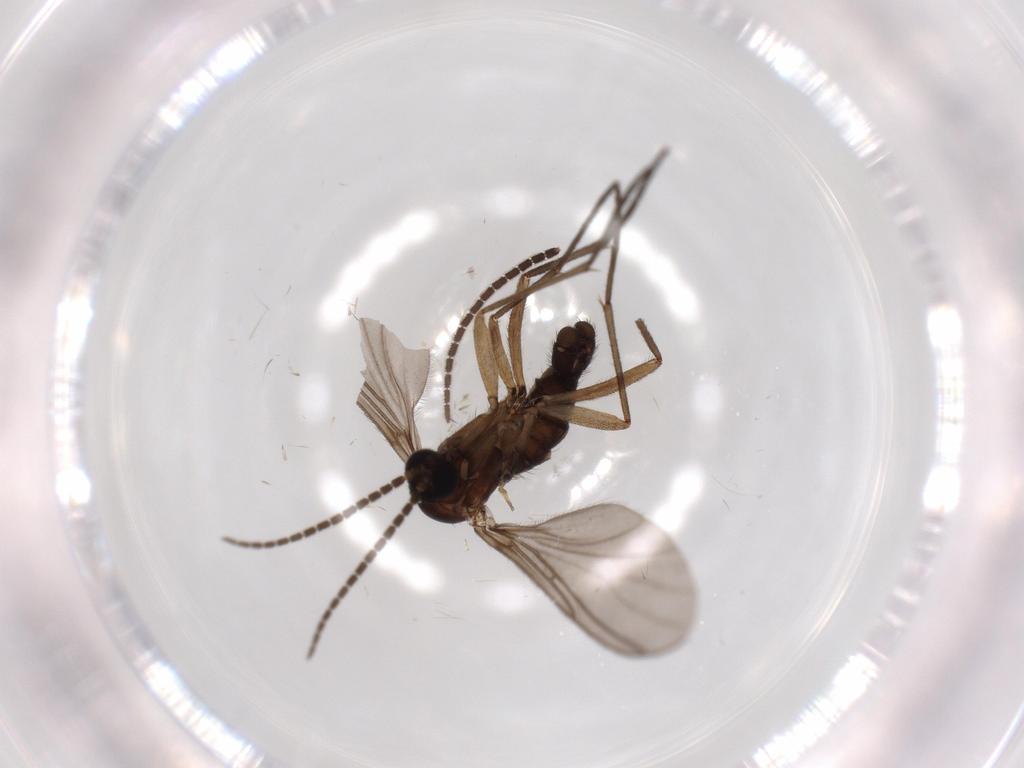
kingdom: Animalia
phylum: Arthropoda
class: Insecta
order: Diptera
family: Sciaridae
